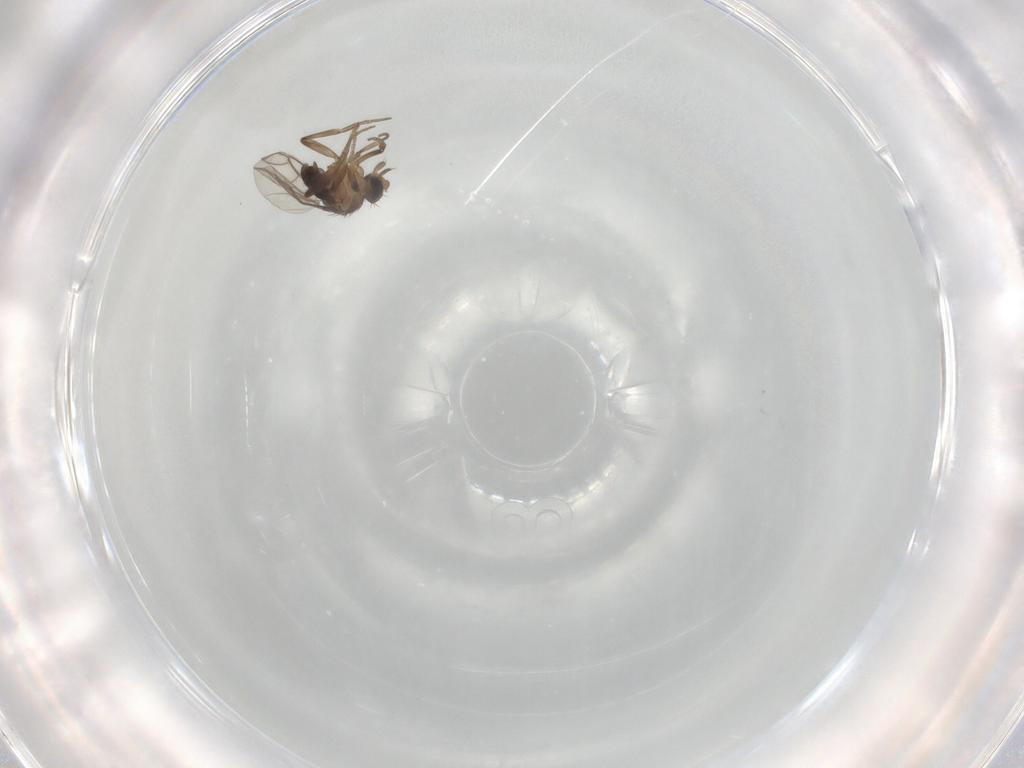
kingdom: Animalia
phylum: Arthropoda
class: Insecta
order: Diptera
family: Phoridae
